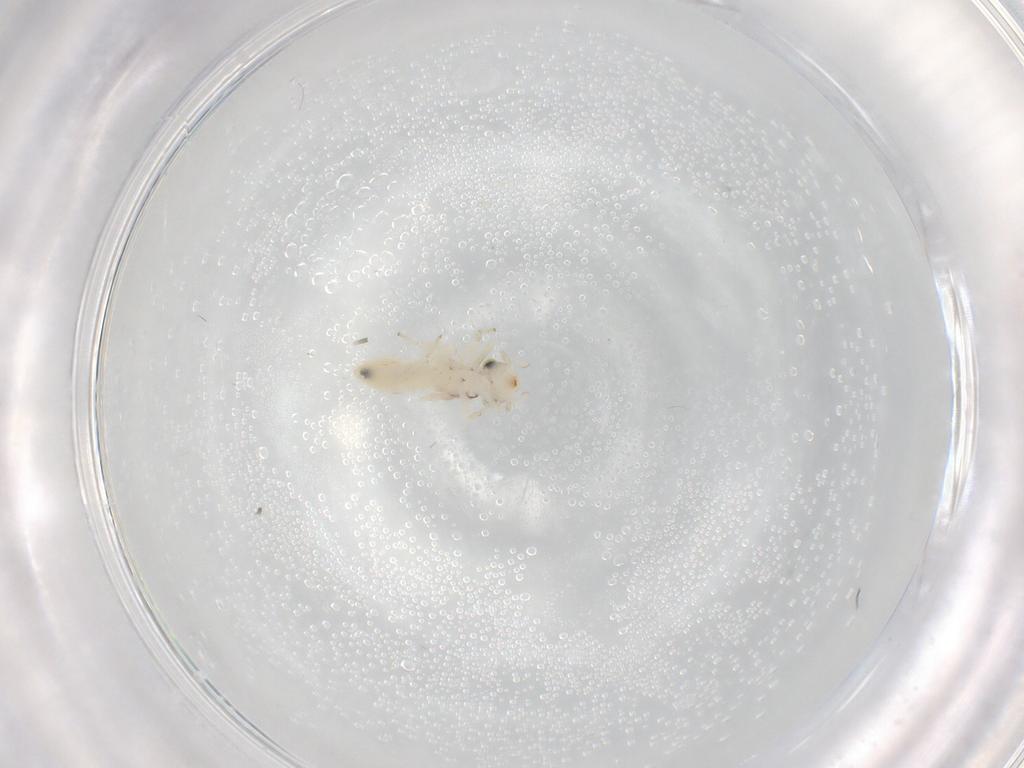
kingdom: Animalia
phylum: Arthropoda
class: Insecta
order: Psocodea
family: Lepidopsocidae
